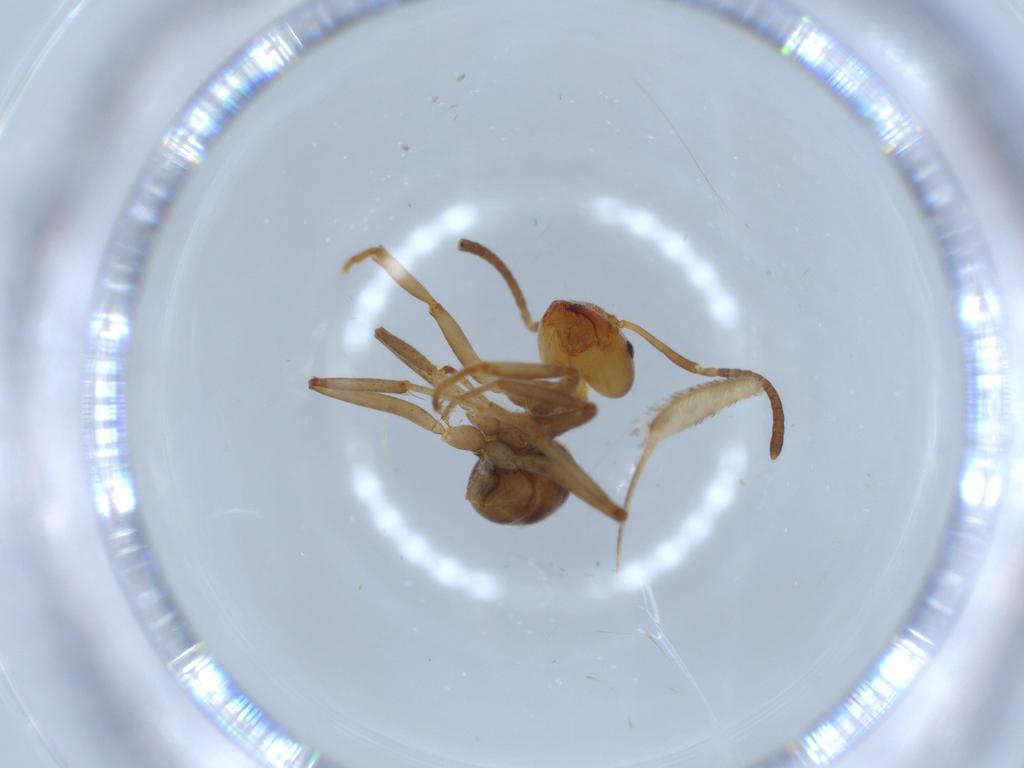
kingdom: Animalia
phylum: Arthropoda
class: Insecta
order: Hymenoptera
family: Formicidae
